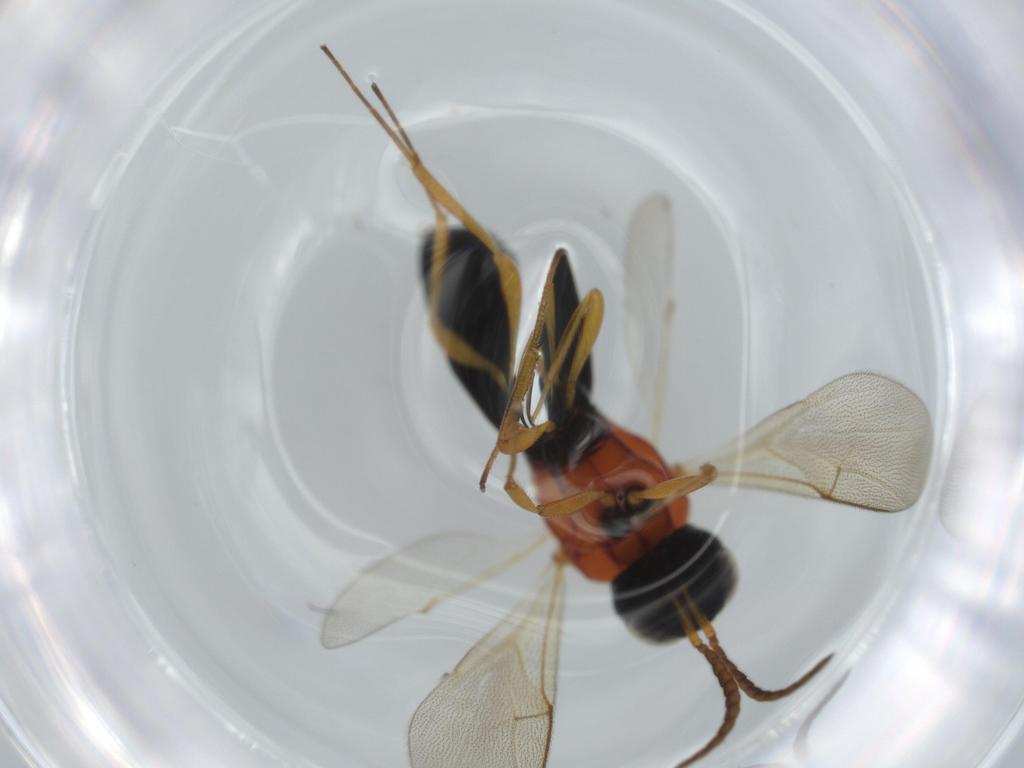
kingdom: Animalia
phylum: Arthropoda
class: Insecta
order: Hymenoptera
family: Scelionidae
